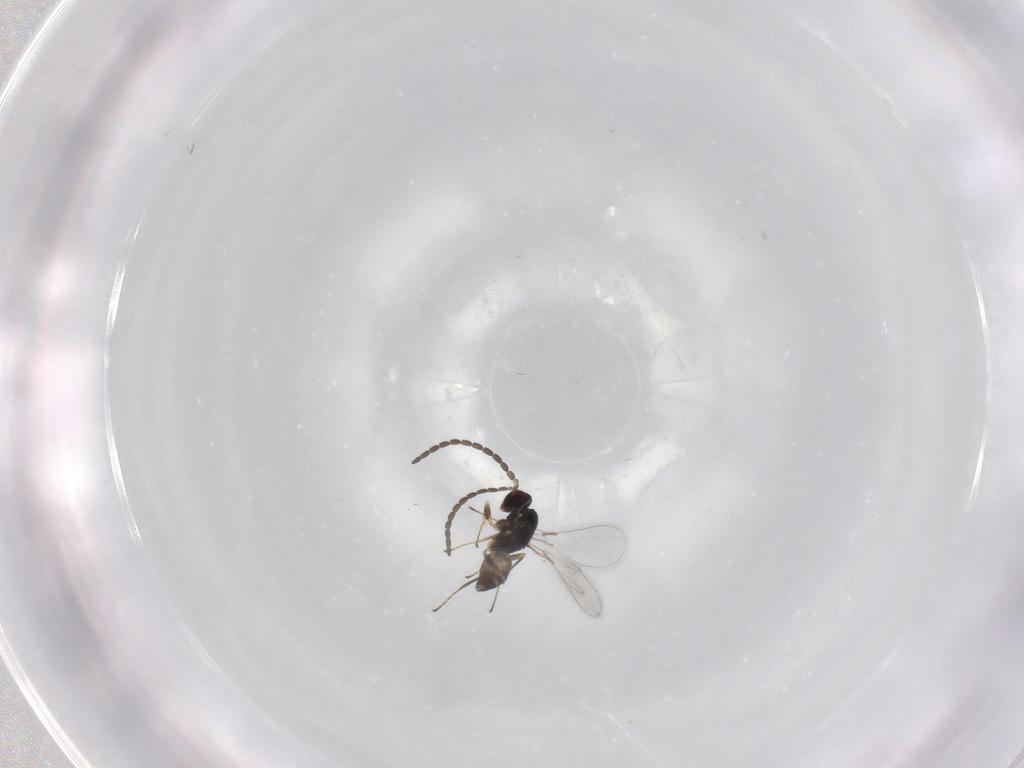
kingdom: Animalia
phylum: Arthropoda
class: Insecta
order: Hymenoptera
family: Mymaridae
